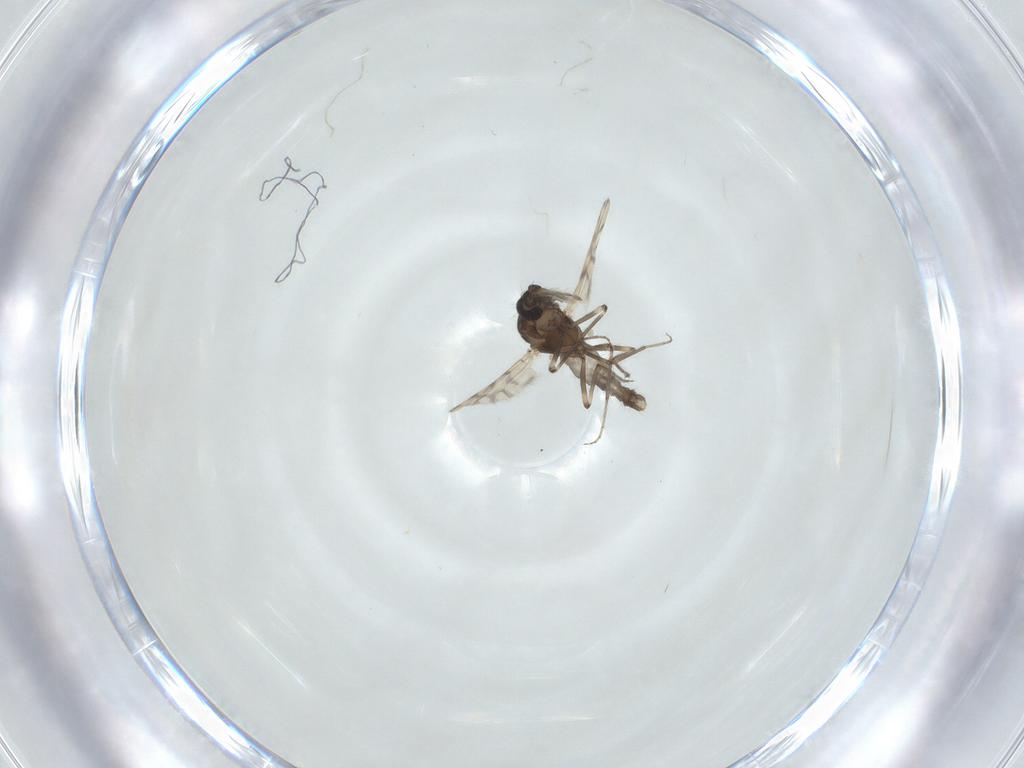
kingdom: Animalia
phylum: Arthropoda
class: Insecta
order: Diptera
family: Ceratopogonidae
